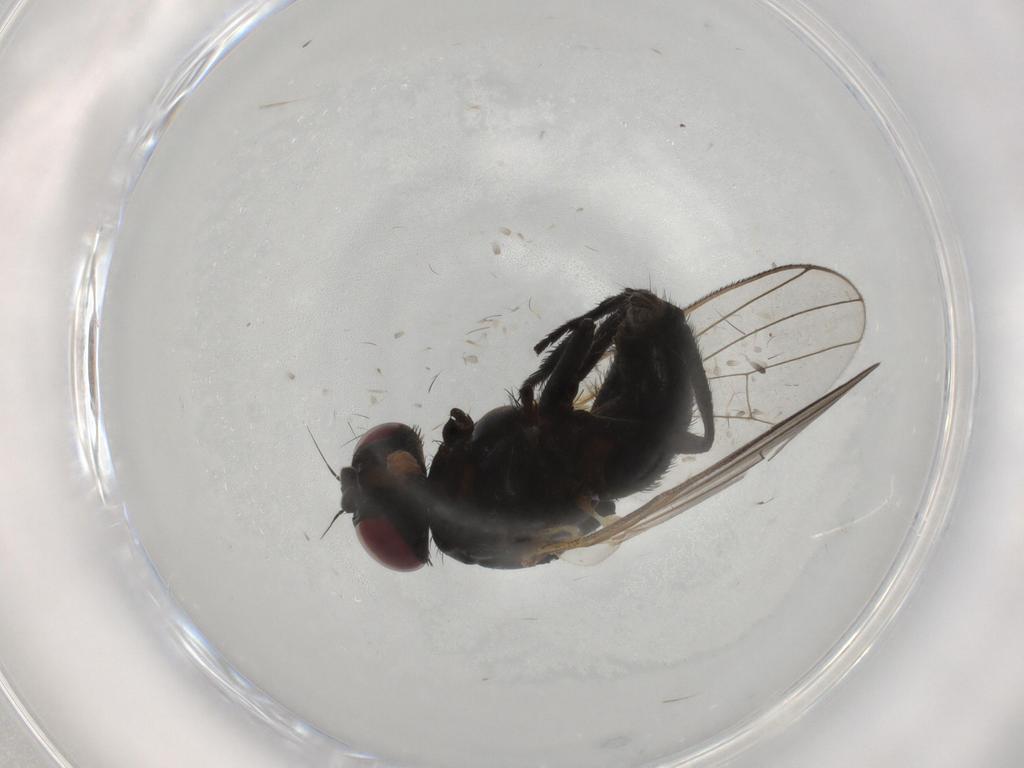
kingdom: Animalia
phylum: Arthropoda
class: Insecta
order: Diptera
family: Fannia
